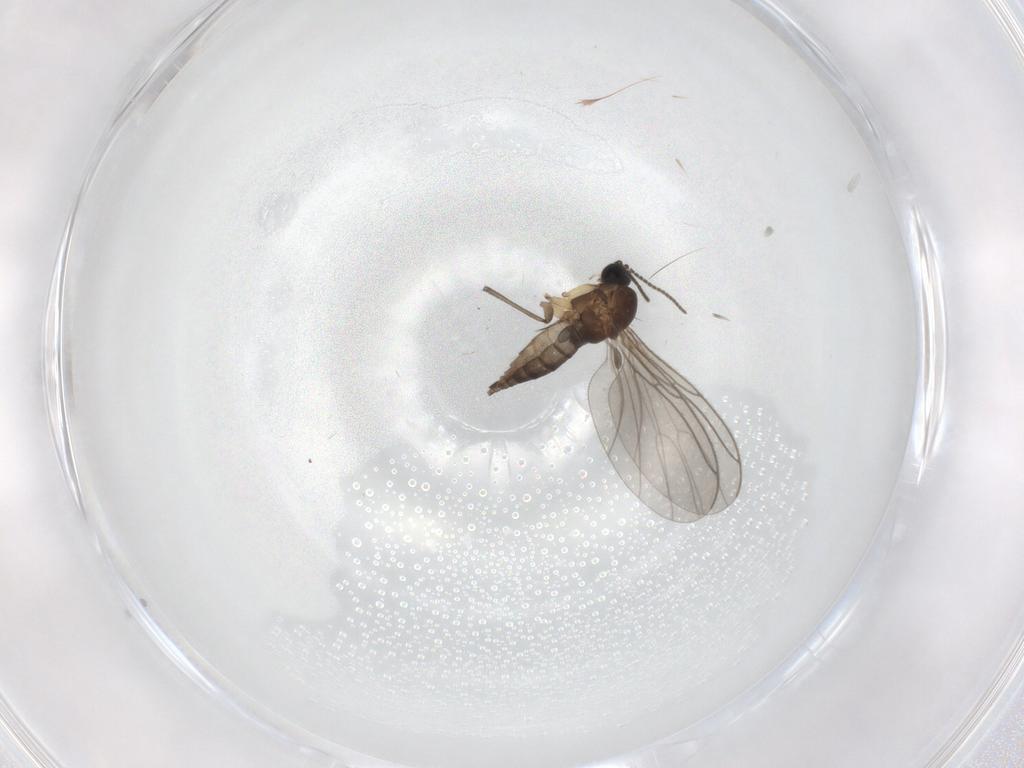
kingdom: Animalia
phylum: Arthropoda
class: Insecta
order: Diptera
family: Sciaridae
